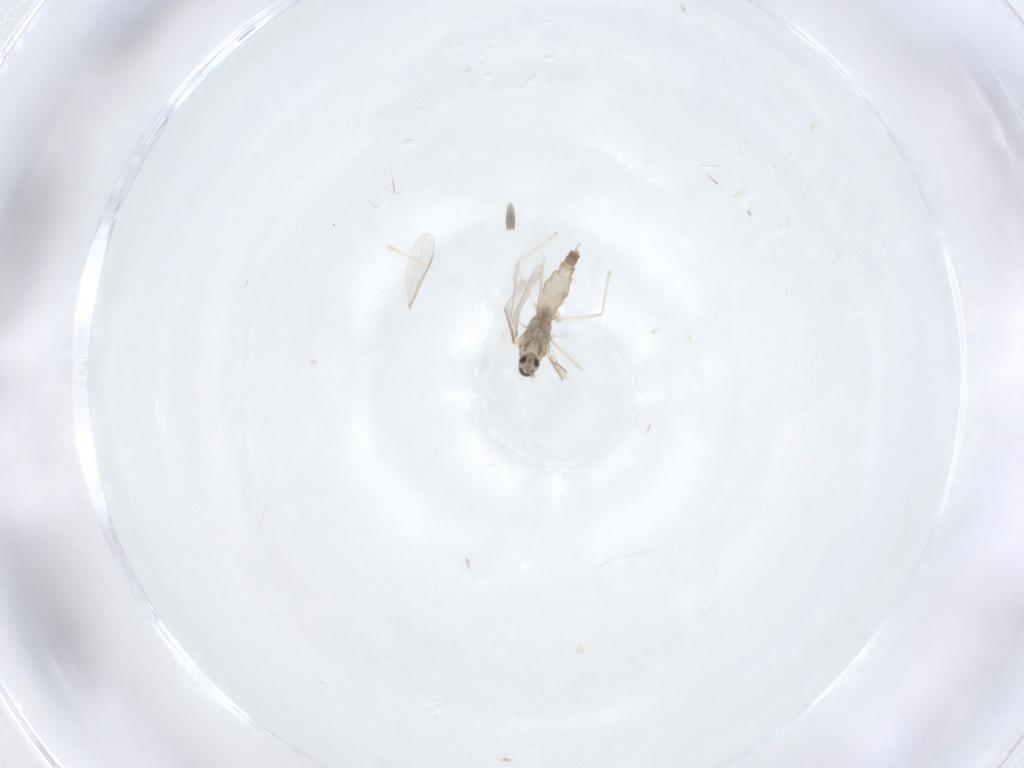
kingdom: Animalia
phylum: Arthropoda
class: Insecta
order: Diptera
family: Cecidomyiidae
